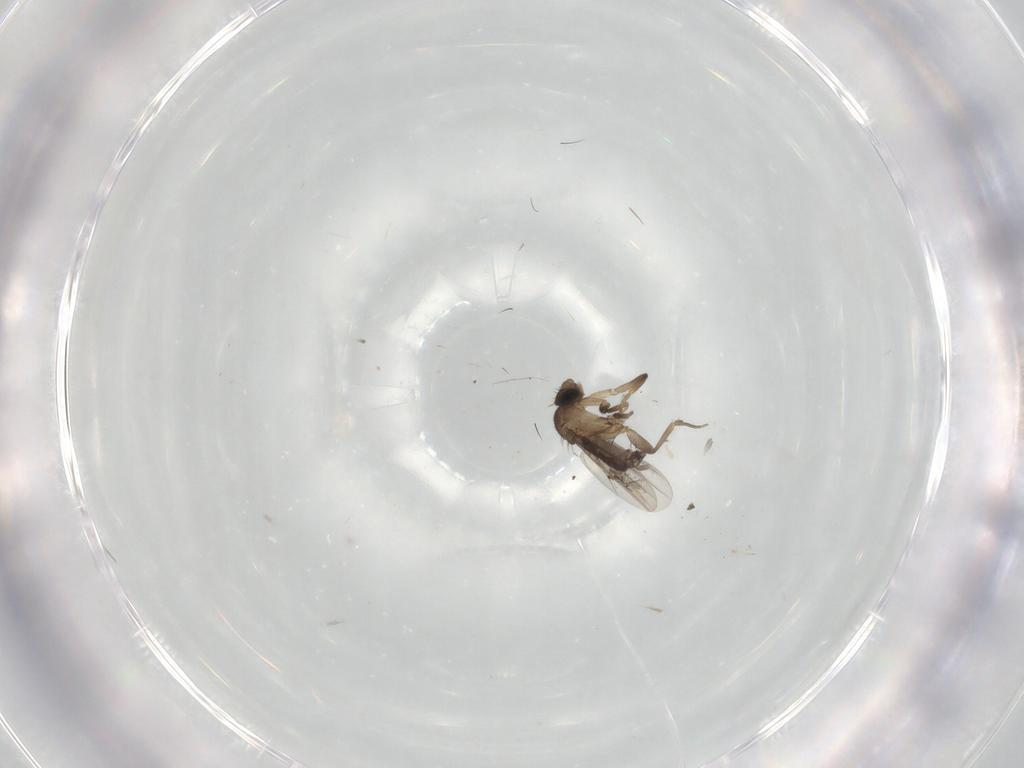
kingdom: Animalia
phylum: Arthropoda
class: Insecta
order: Diptera
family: Phoridae
